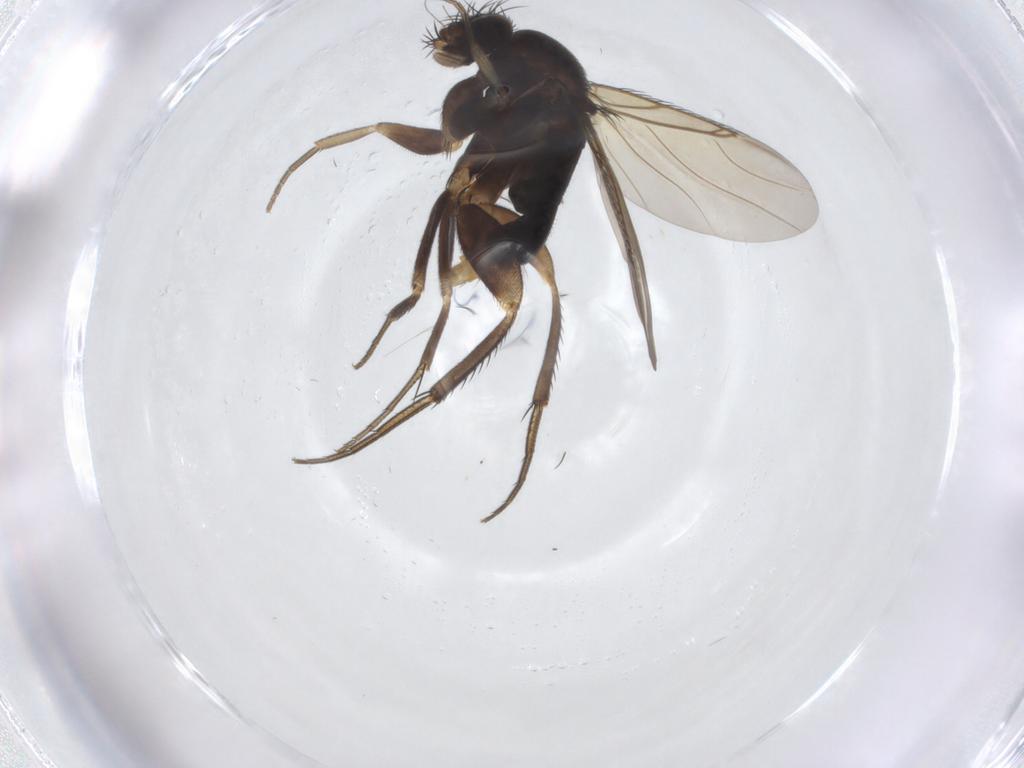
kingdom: Animalia
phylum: Arthropoda
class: Insecta
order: Diptera
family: Phoridae
